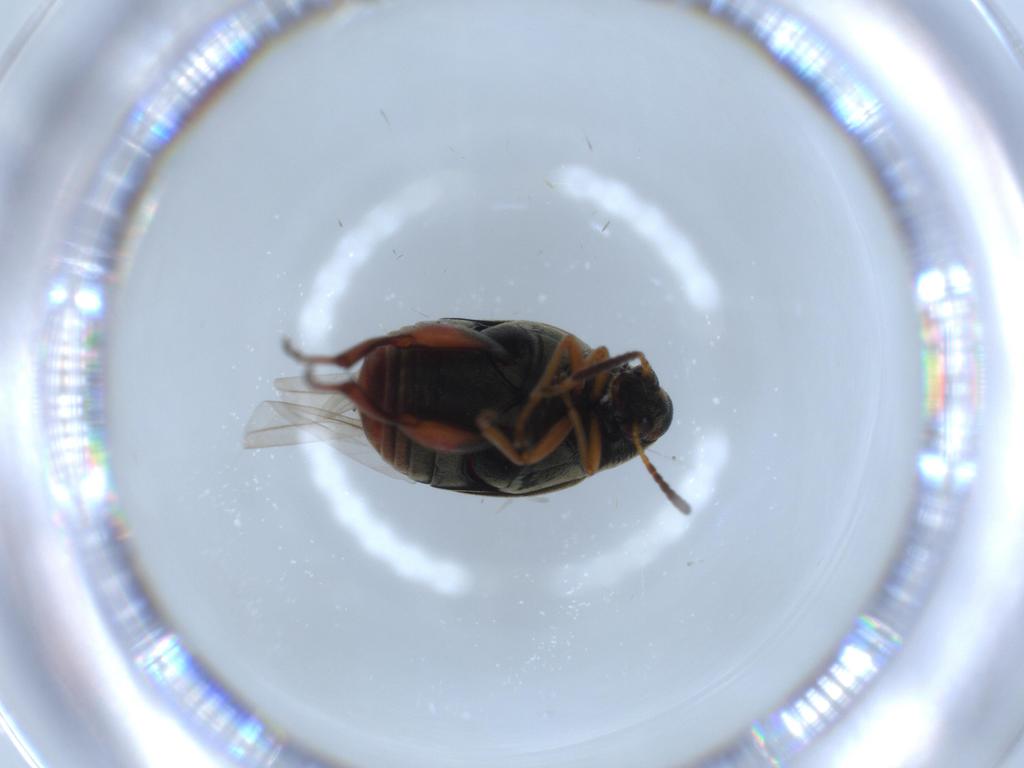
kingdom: Animalia
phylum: Arthropoda
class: Insecta
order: Coleoptera
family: Chrysomelidae
